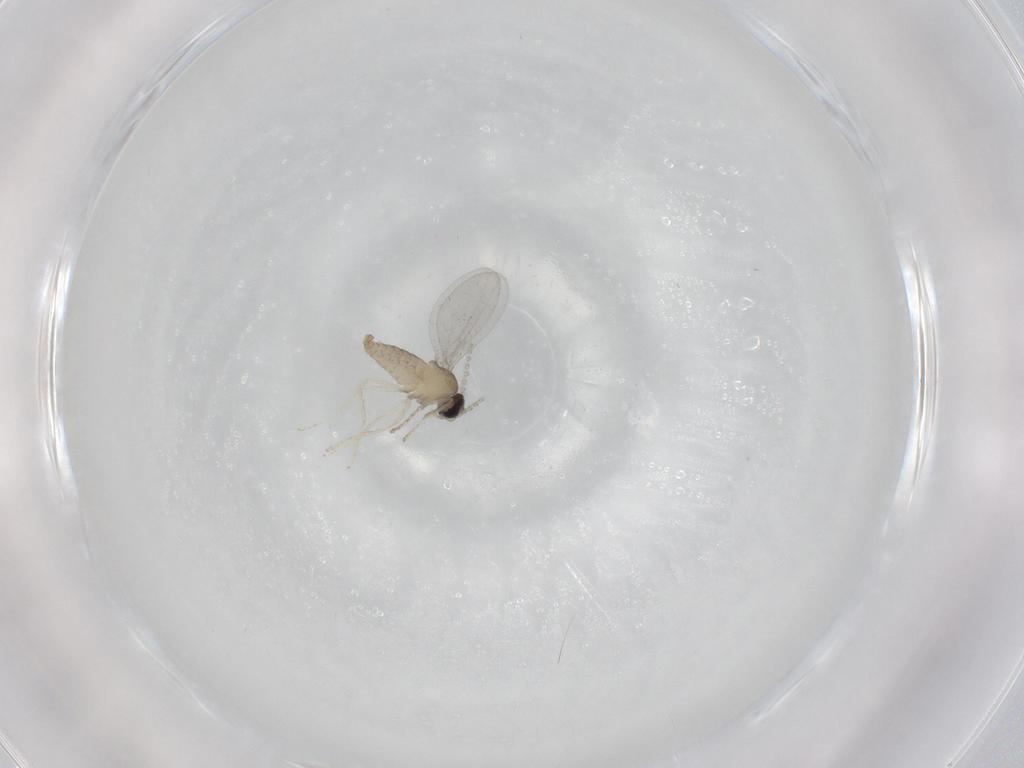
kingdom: Animalia
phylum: Arthropoda
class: Insecta
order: Diptera
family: Cecidomyiidae
